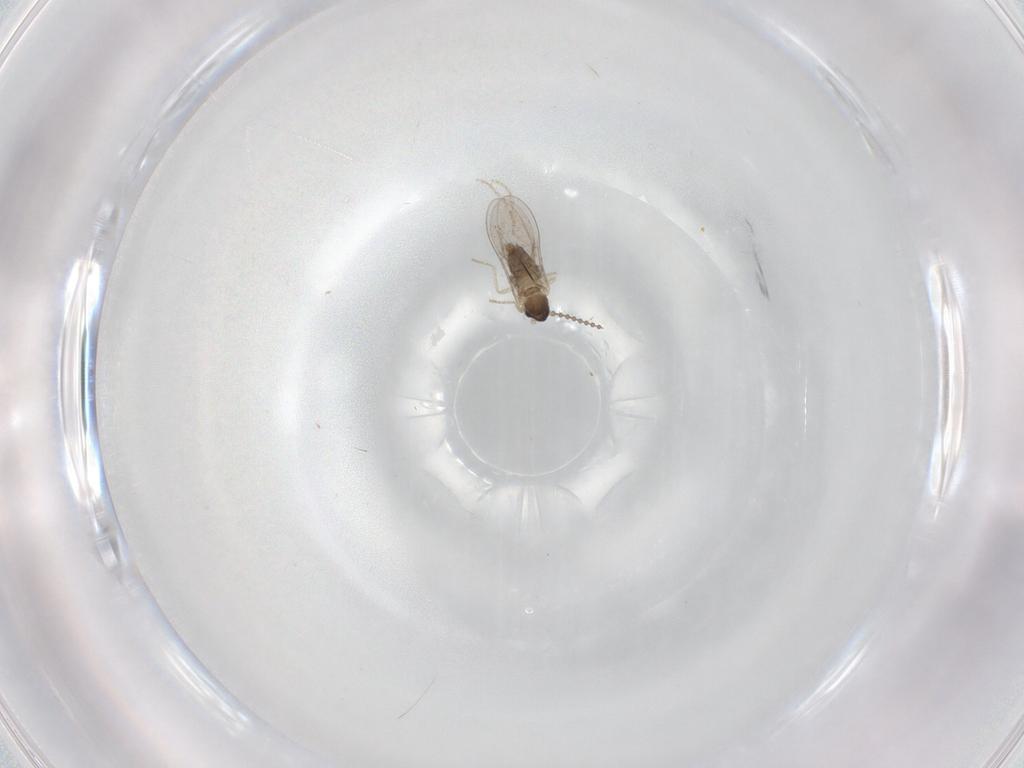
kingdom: Animalia
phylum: Arthropoda
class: Insecta
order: Diptera
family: Cecidomyiidae
